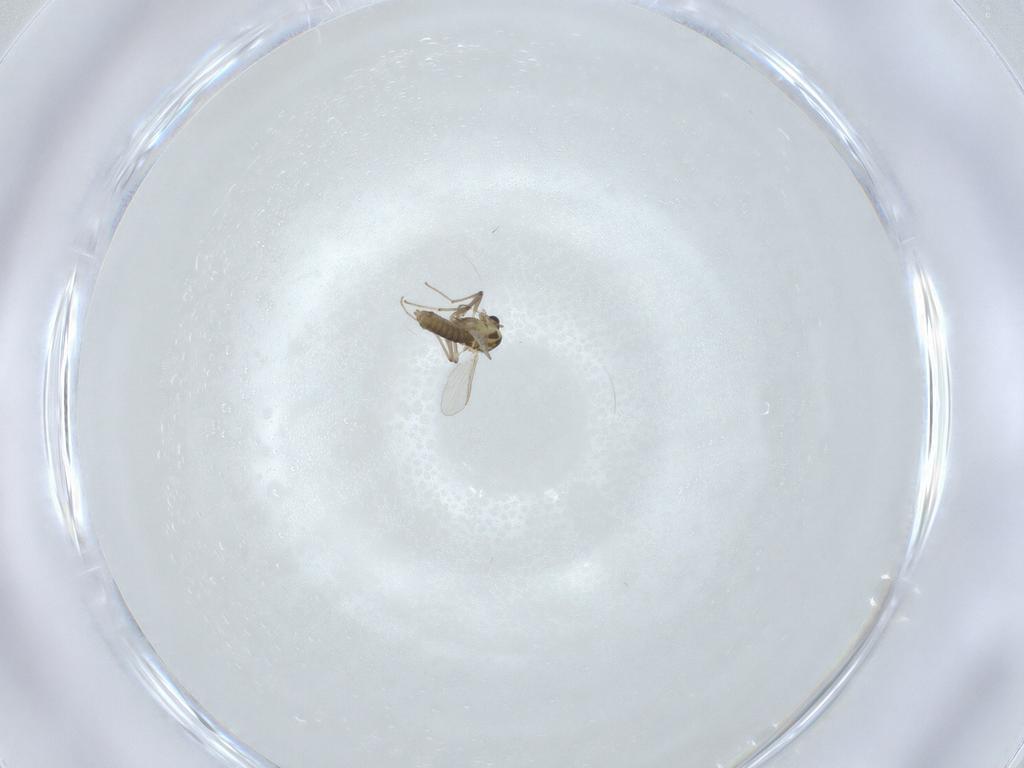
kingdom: Animalia
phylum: Arthropoda
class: Insecta
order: Diptera
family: Chironomidae
